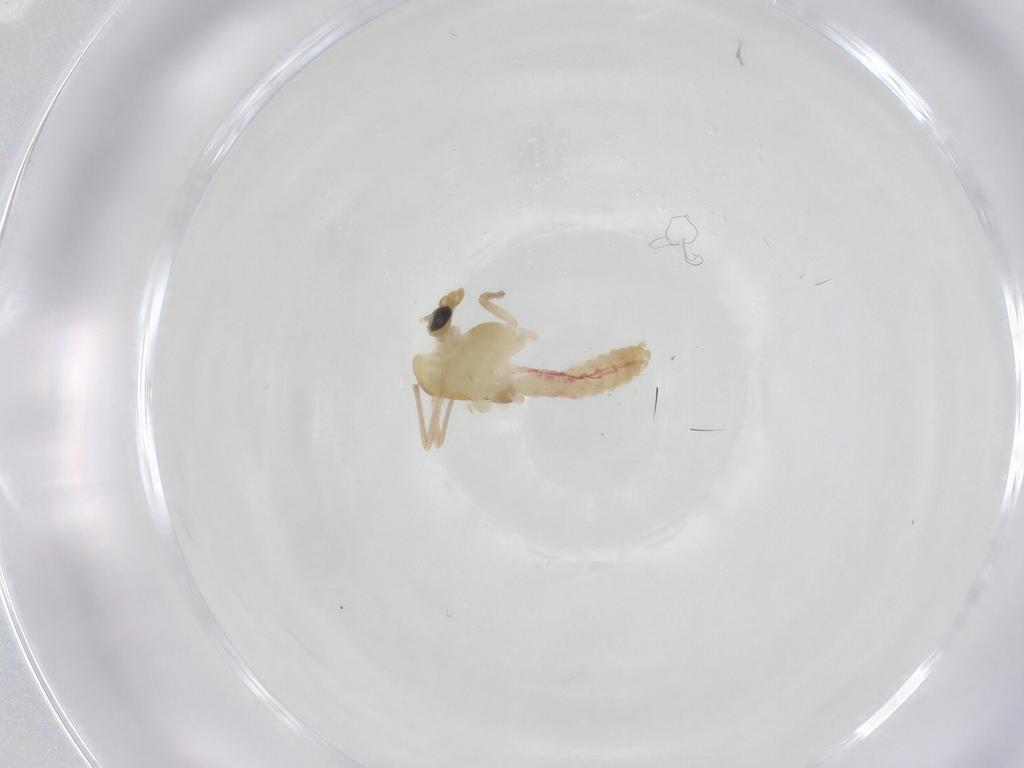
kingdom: Animalia
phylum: Arthropoda
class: Insecta
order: Diptera
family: Chironomidae
